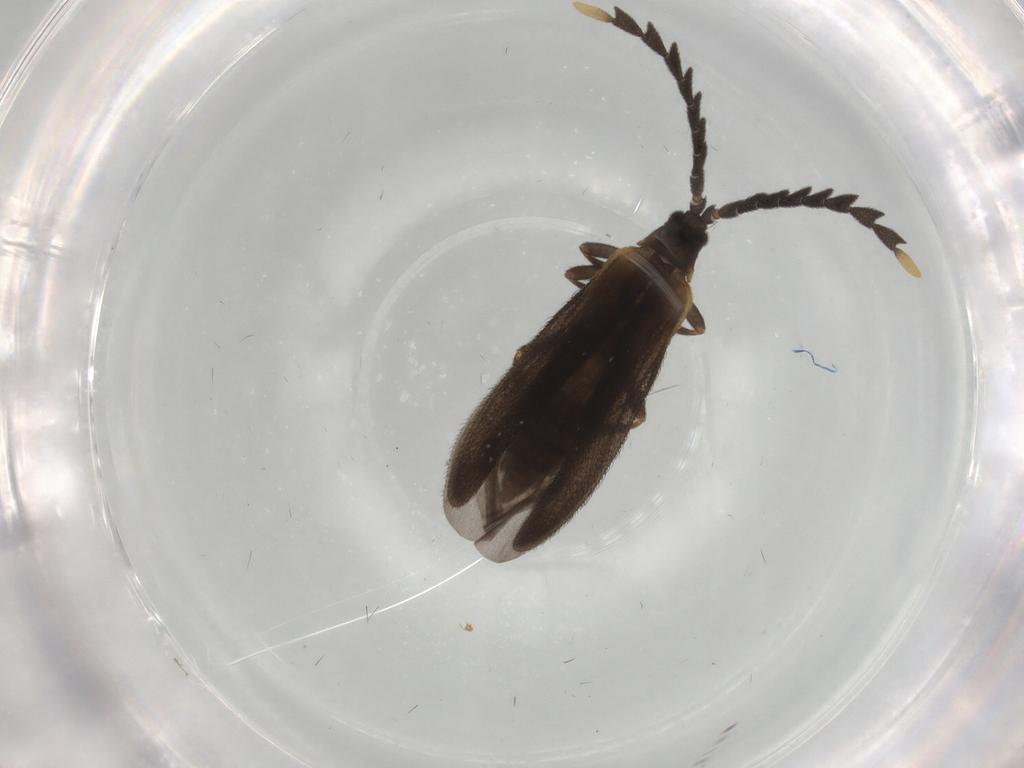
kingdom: Animalia
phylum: Arthropoda
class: Insecta
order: Coleoptera
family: Lycidae
